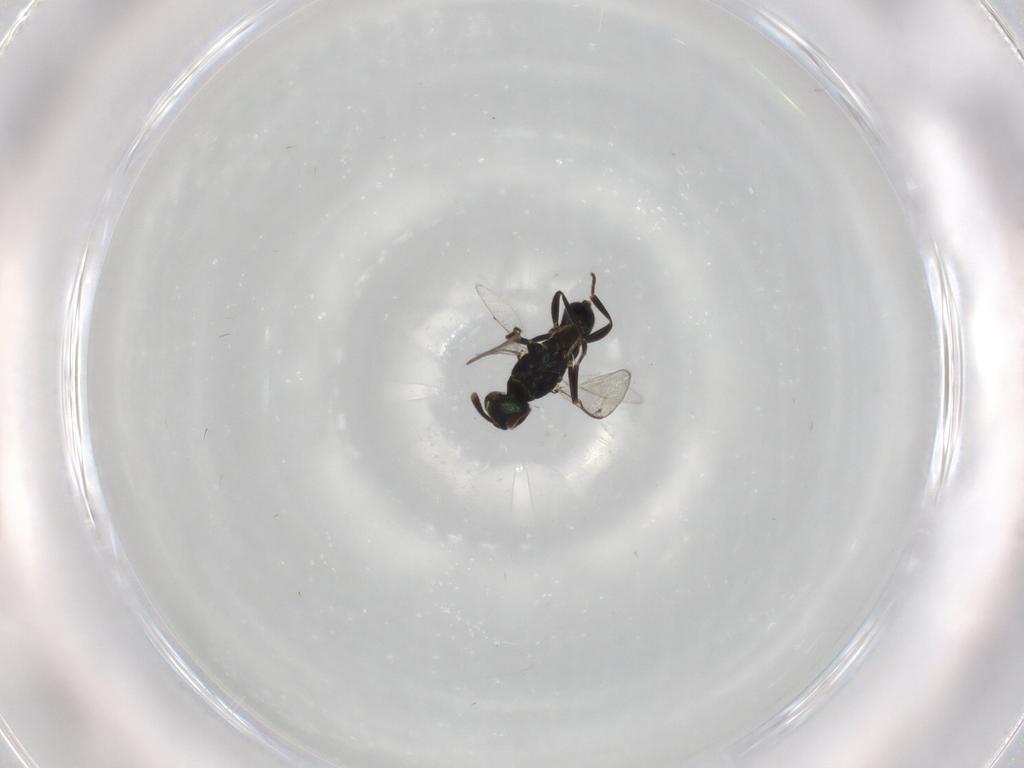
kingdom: Animalia
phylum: Arthropoda
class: Insecta
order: Hymenoptera
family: Eupelmidae
